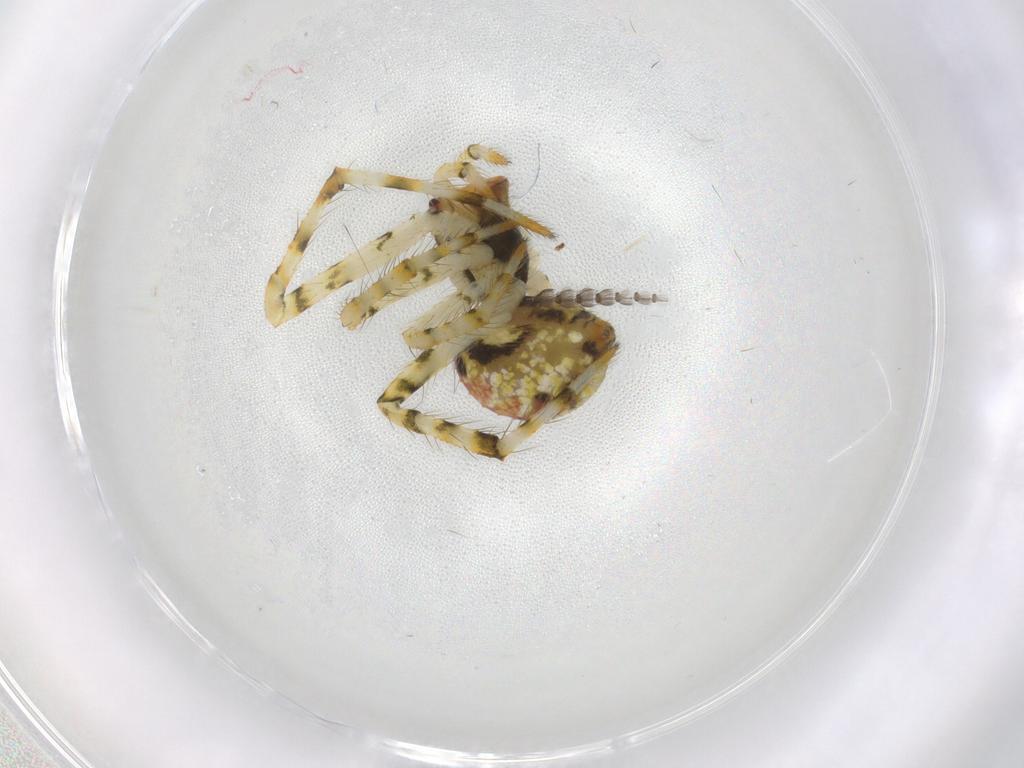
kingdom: Animalia
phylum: Arthropoda
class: Arachnida
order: Araneae
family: Theridiidae
